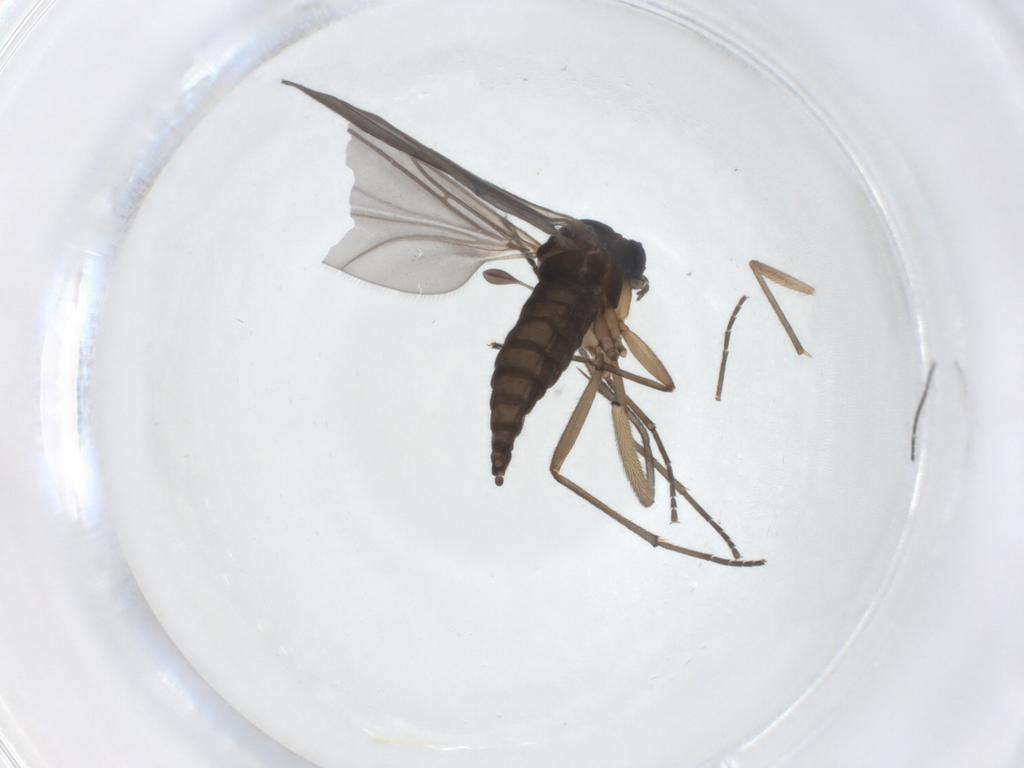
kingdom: Animalia
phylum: Arthropoda
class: Insecta
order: Diptera
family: Sciaridae
